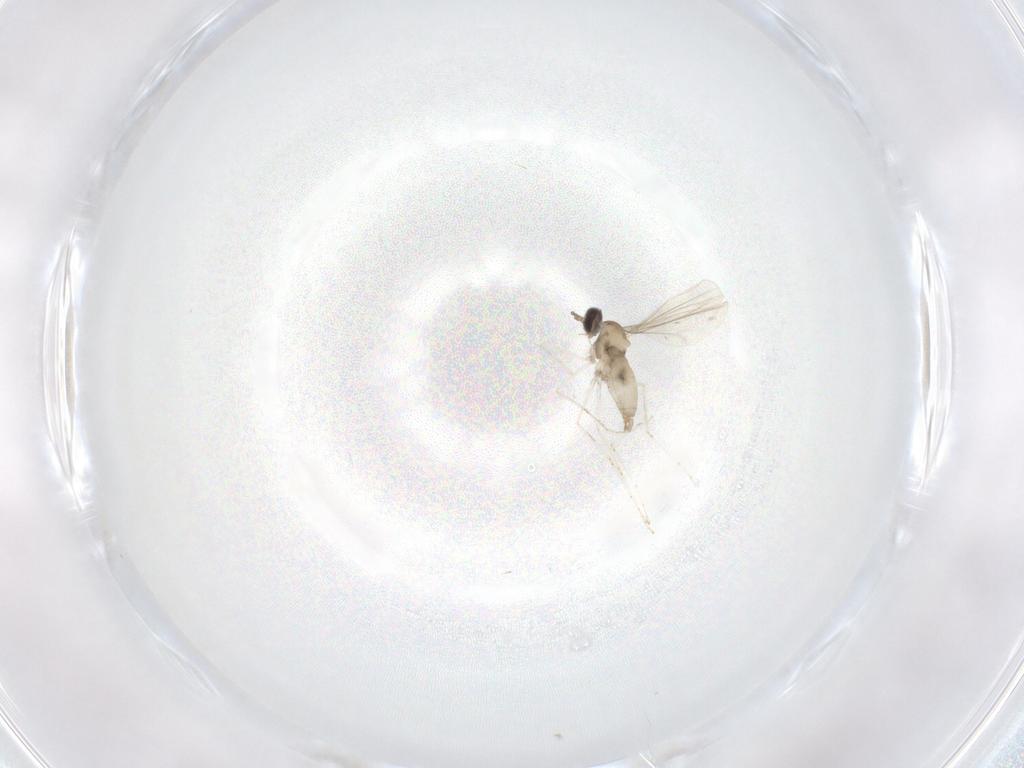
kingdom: Animalia
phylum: Arthropoda
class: Insecta
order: Diptera
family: Cecidomyiidae
